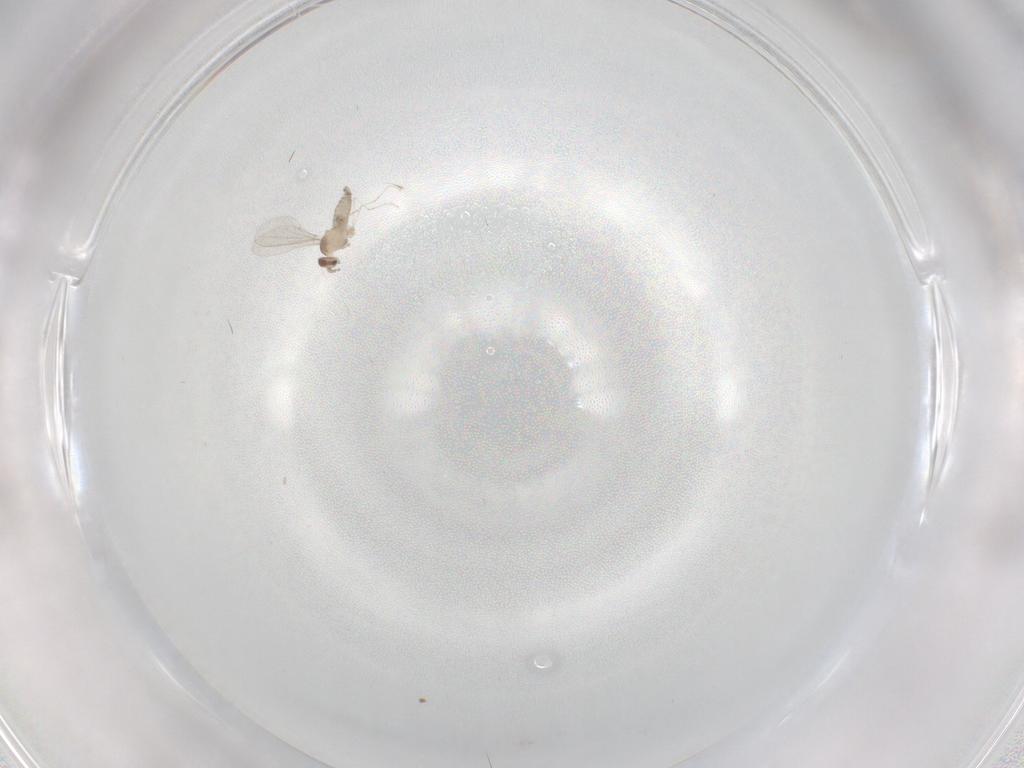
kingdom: Animalia
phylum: Arthropoda
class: Insecta
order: Diptera
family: Cecidomyiidae
